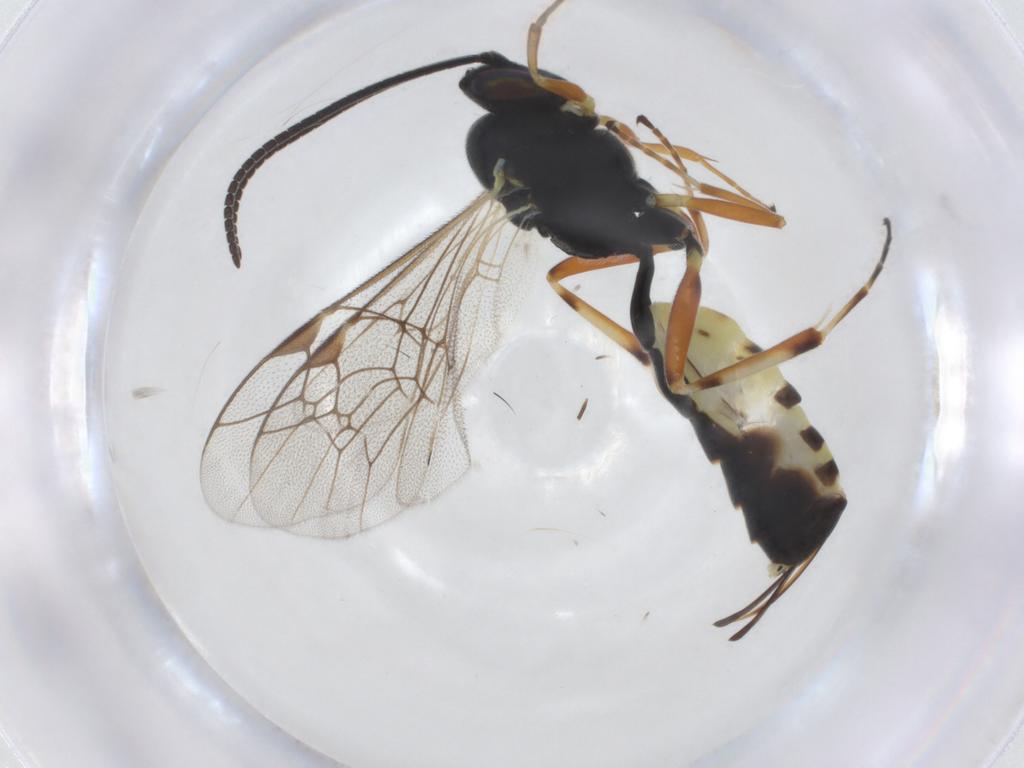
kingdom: Animalia
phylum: Arthropoda
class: Insecta
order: Hymenoptera
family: Ichneumonidae
